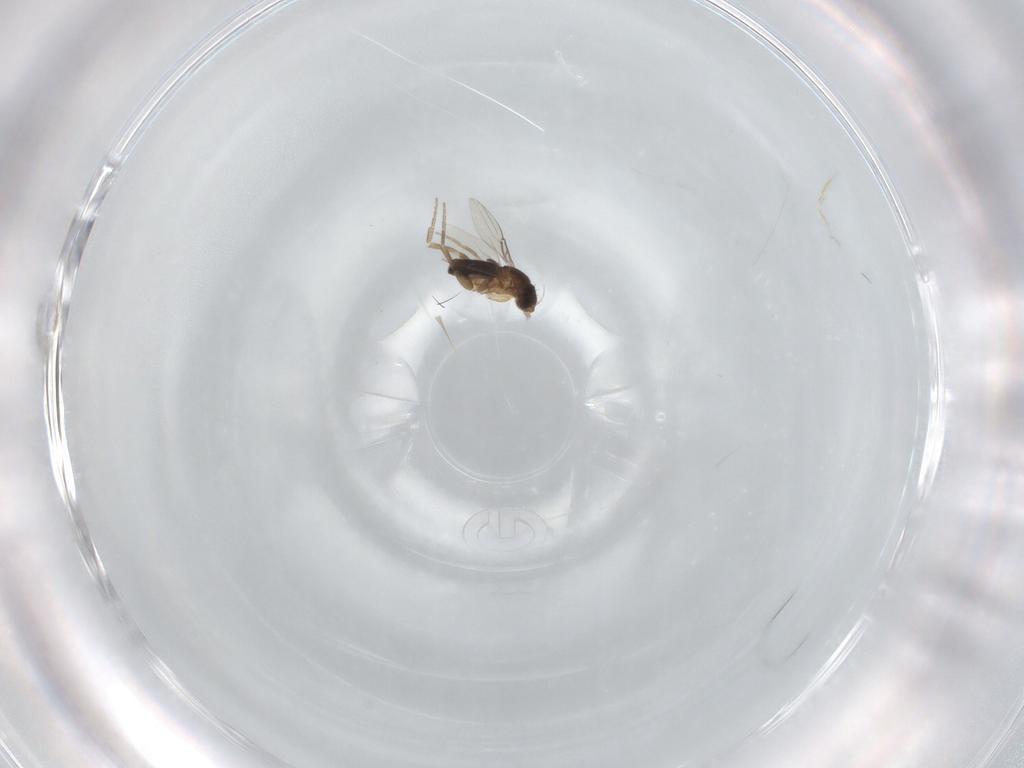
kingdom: Animalia
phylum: Arthropoda
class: Insecta
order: Diptera
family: Phoridae
